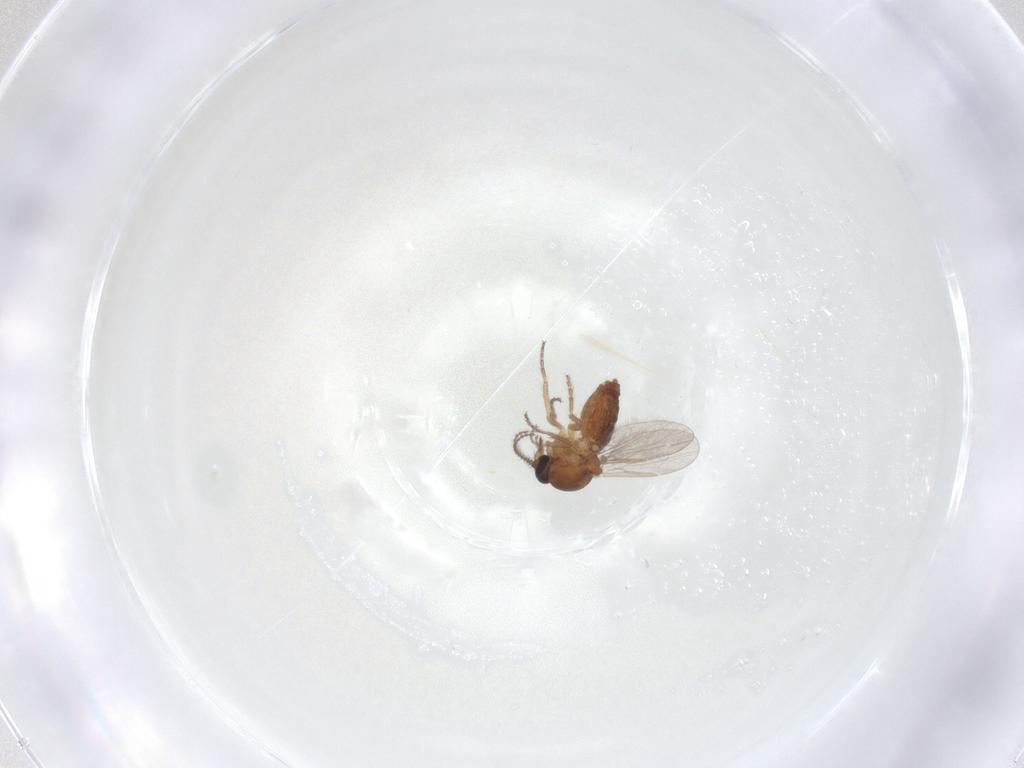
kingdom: Animalia
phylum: Arthropoda
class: Insecta
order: Diptera
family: Ceratopogonidae
